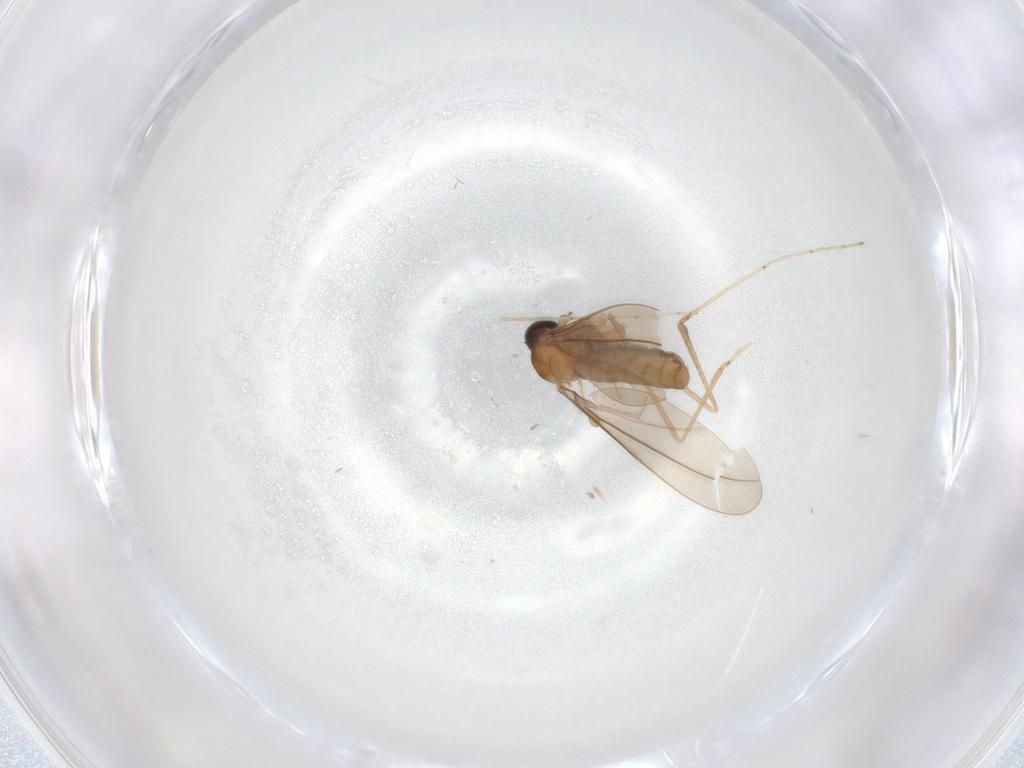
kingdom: Animalia
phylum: Arthropoda
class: Insecta
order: Diptera
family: Cecidomyiidae
